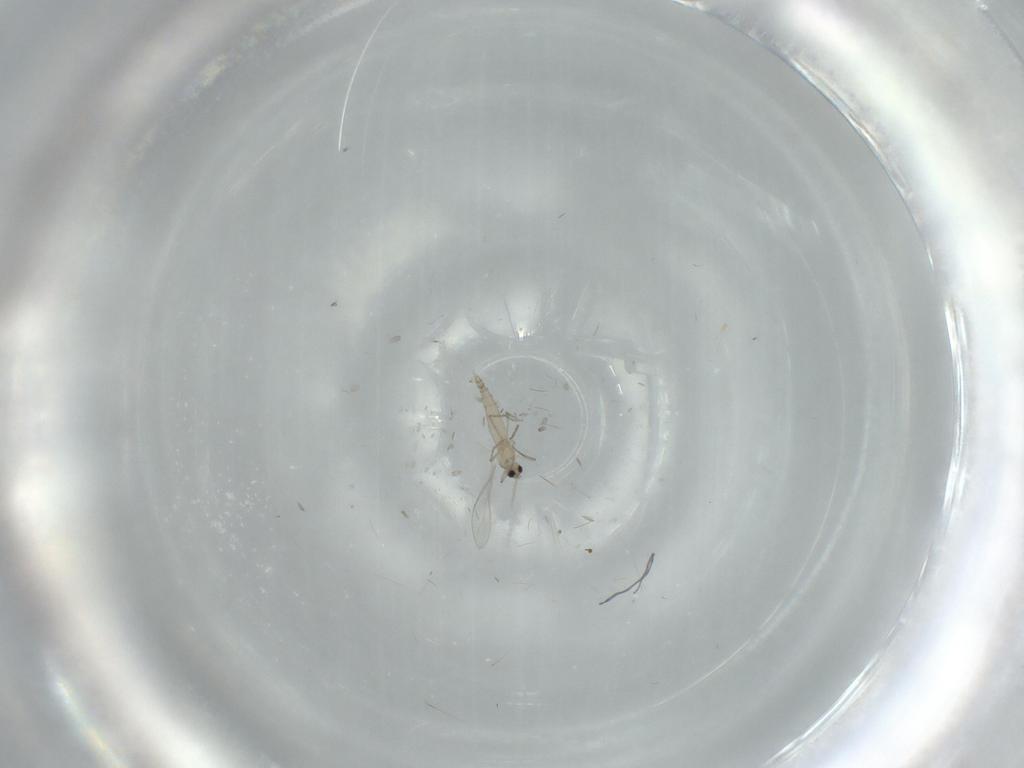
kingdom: Animalia
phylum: Arthropoda
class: Insecta
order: Diptera
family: Cecidomyiidae
